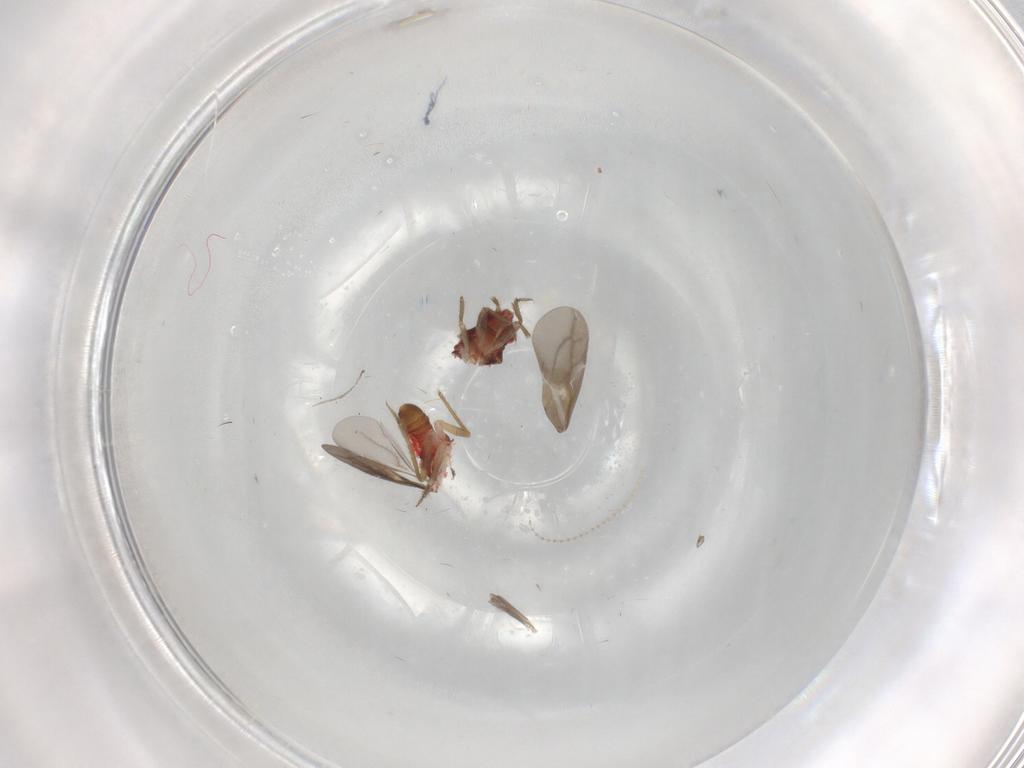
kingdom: Animalia
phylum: Arthropoda
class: Insecta
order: Hemiptera
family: Ceratocombidae
